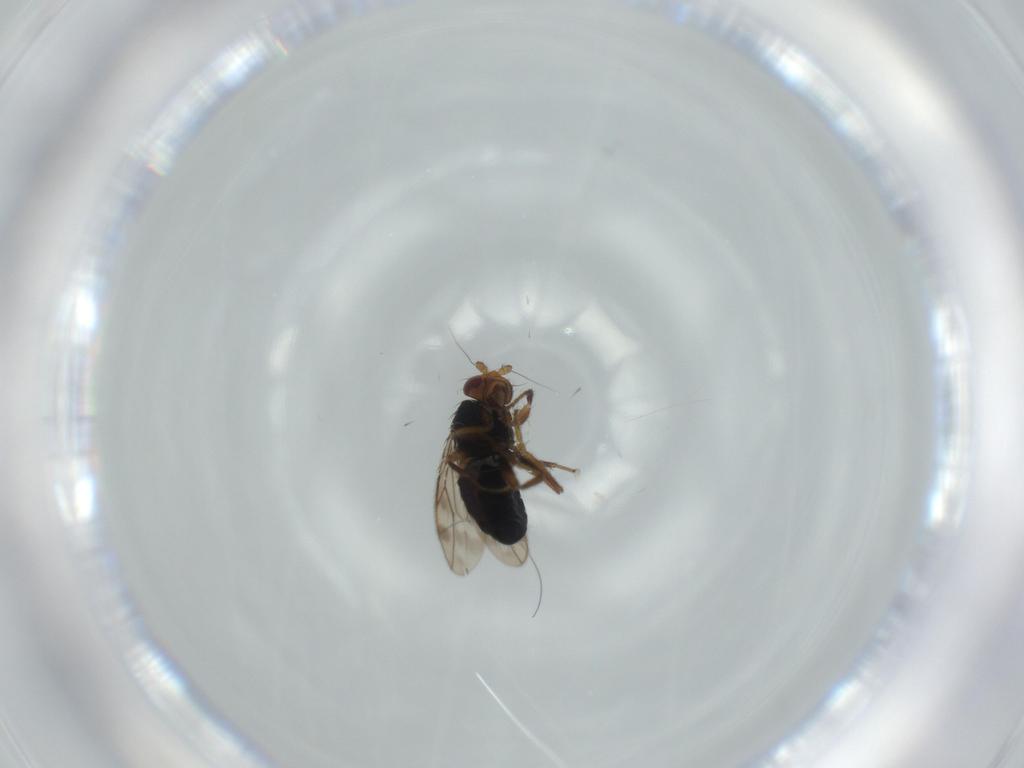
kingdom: Animalia
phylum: Arthropoda
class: Insecta
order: Diptera
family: Sphaeroceridae
